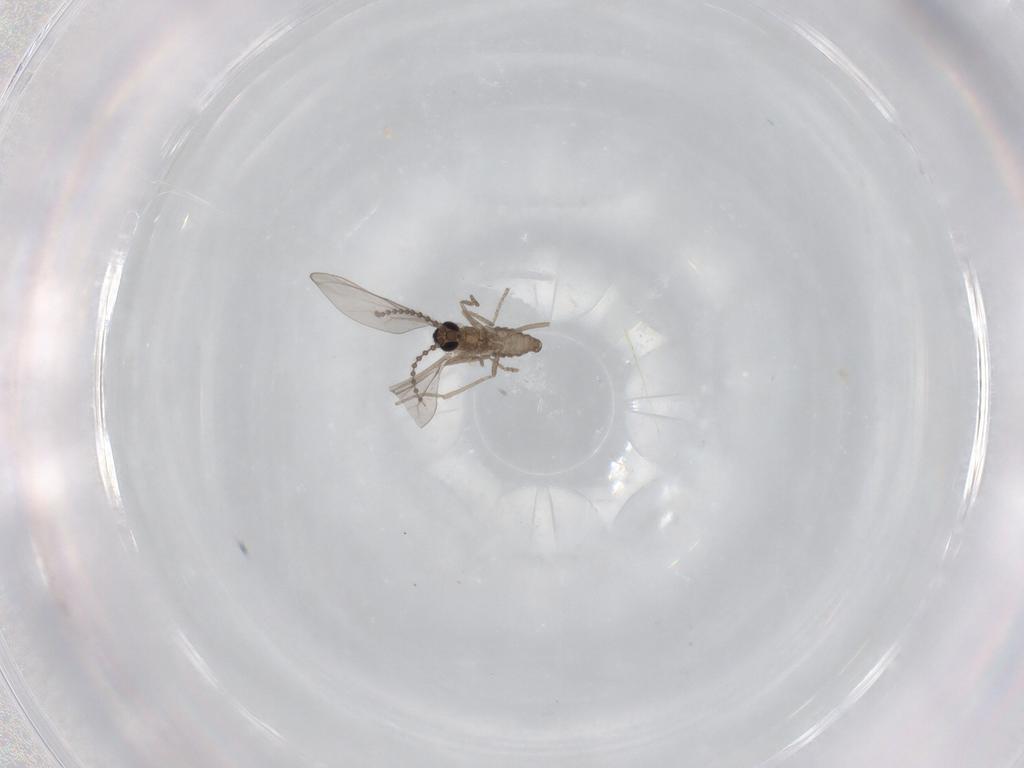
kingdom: Animalia
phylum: Arthropoda
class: Insecta
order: Diptera
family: Cecidomyiidae
